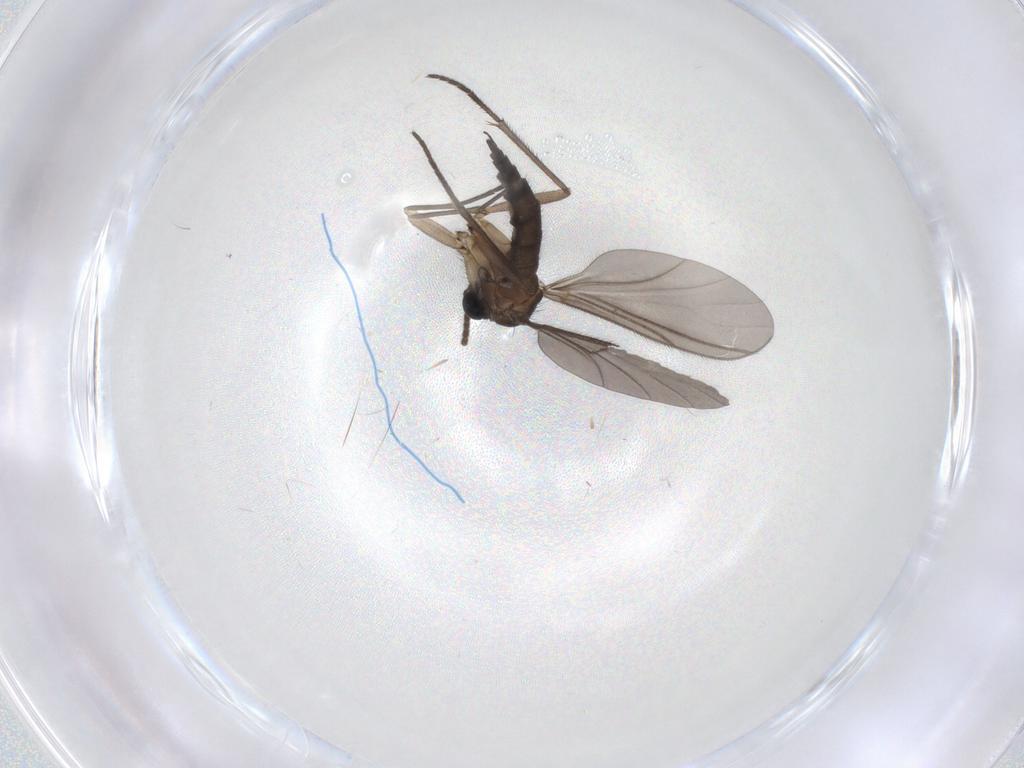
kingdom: Animalia
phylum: Arthropoda
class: Insecta
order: Diptera
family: Sciaridae
